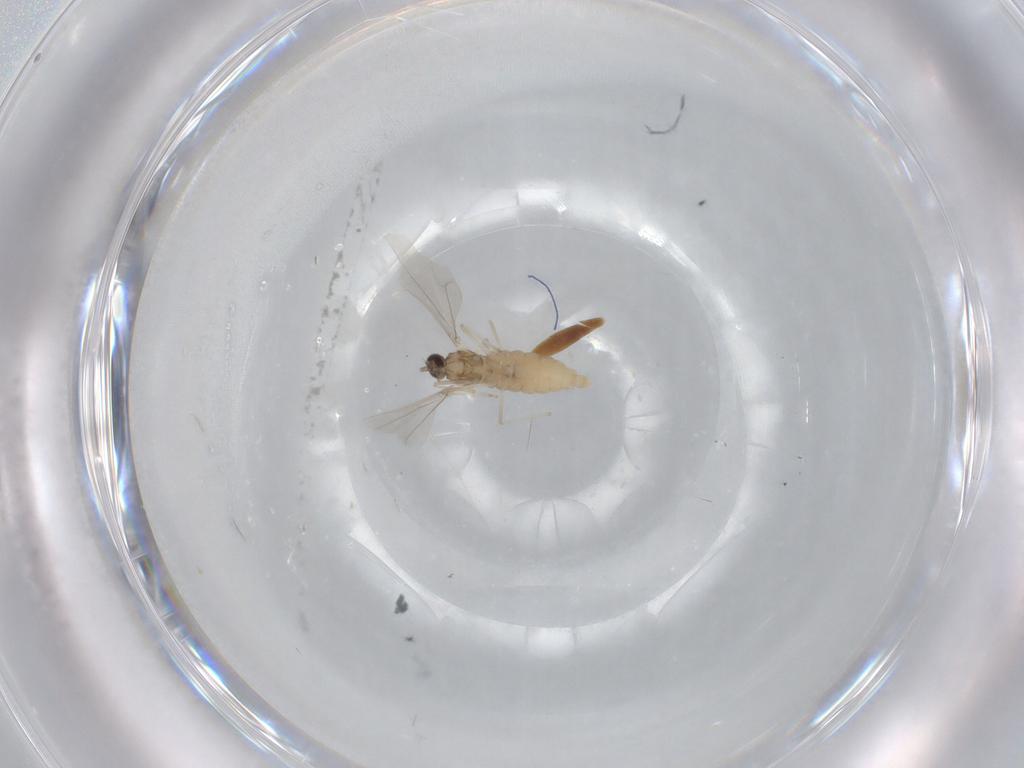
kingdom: Animalia
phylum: Arthropoda
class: Insecta
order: Diptera
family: Cecidomyiidae
